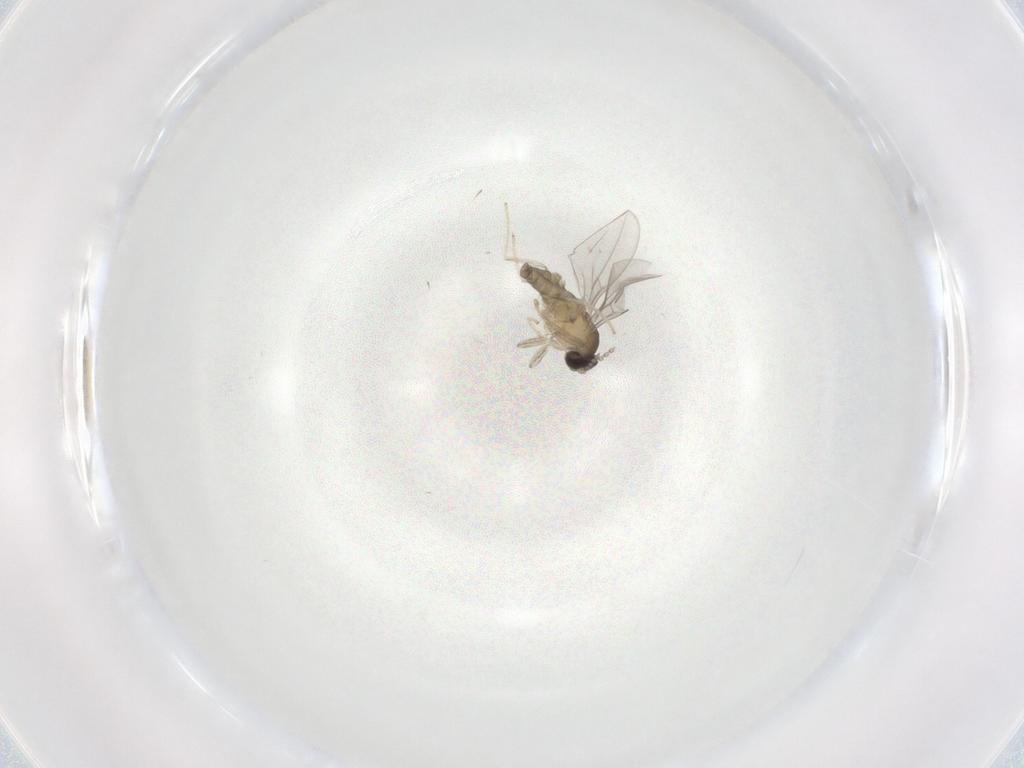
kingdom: Animalia
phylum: Arthropoda
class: Insecta
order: Diptera
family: Cecidomyiidae
